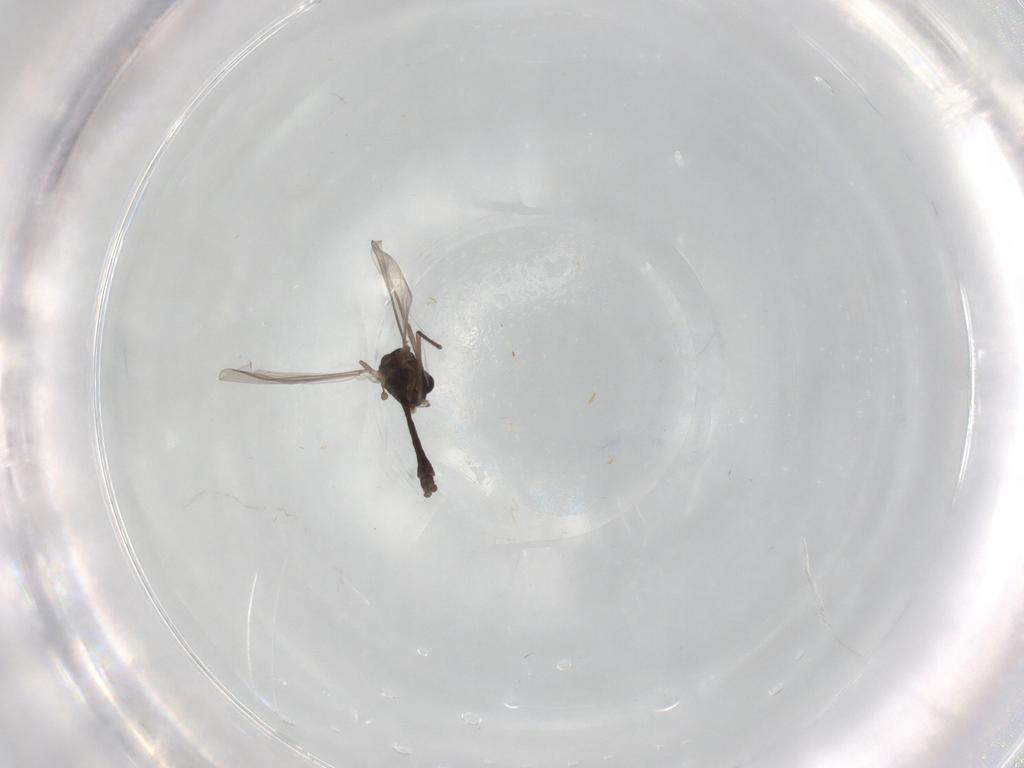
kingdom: Animalia
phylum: Arthropoda
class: Insecta
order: Diptera
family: Chironomidae
